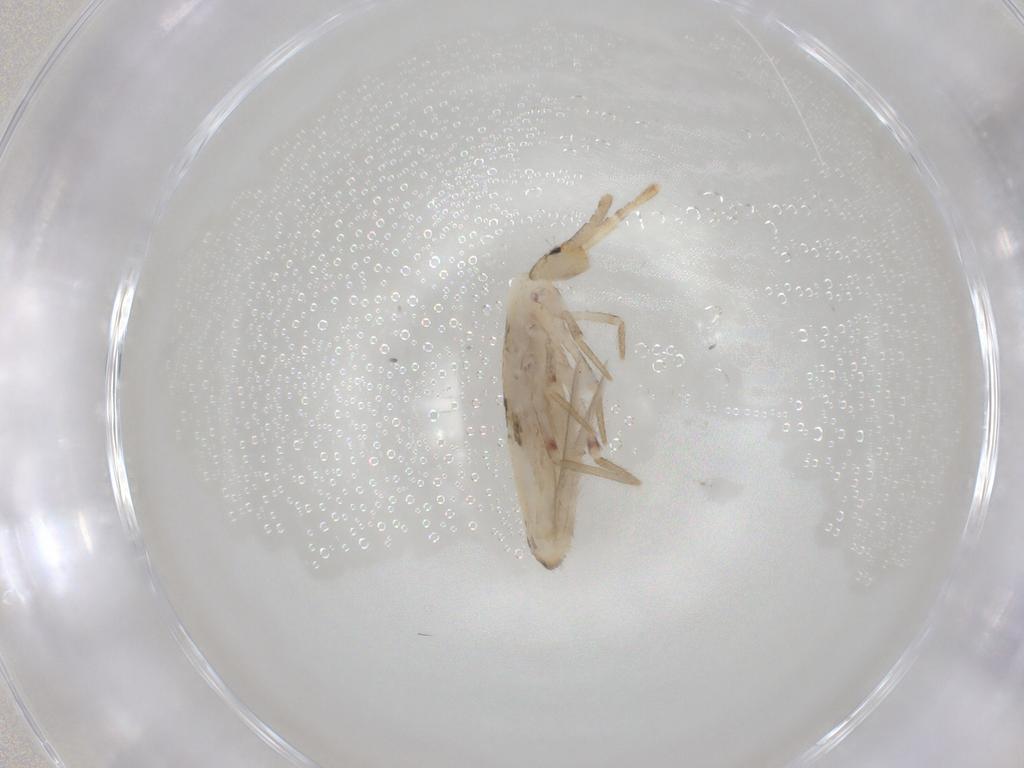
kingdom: Animalia
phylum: Arthropoda
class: Collembola
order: Poduromorpha
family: Hypogastruridae
